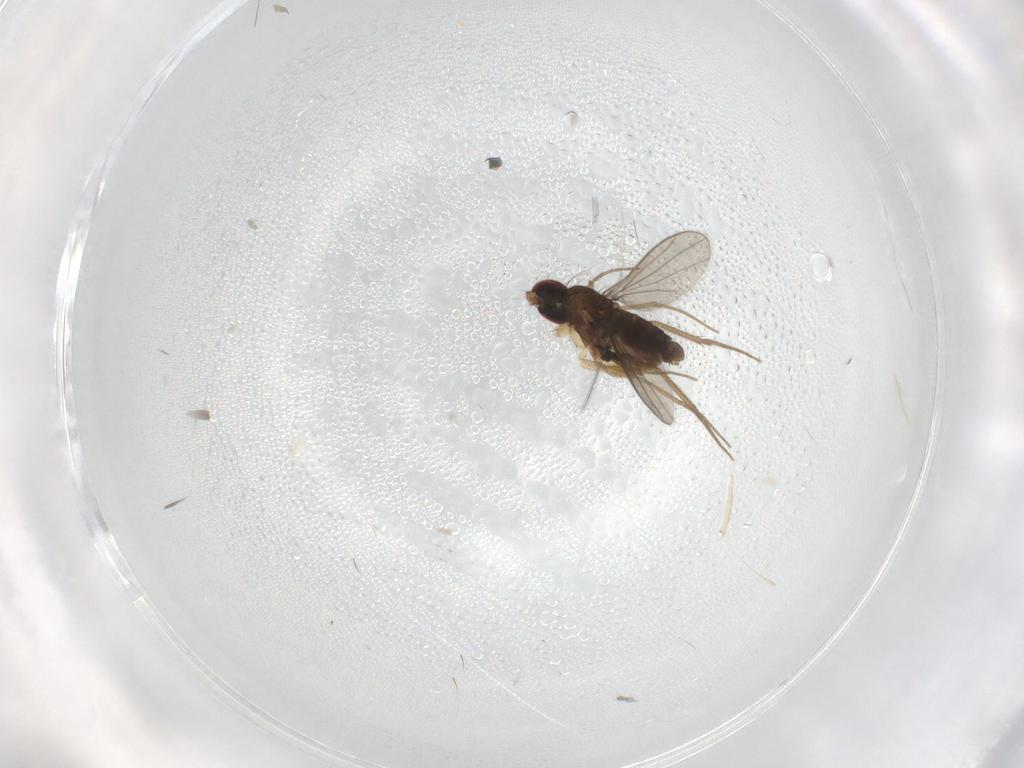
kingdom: Animalia
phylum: Arthropoda
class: Insecta
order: Diptera
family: Dolichopodidae
